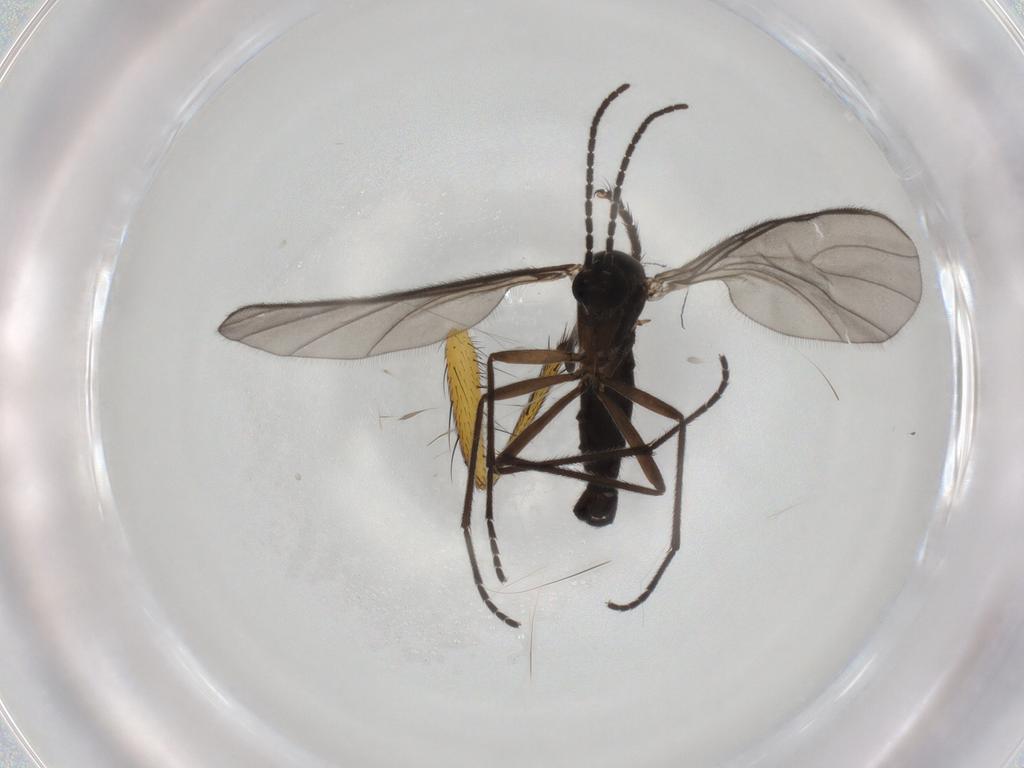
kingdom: Animalia
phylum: Arthropoda
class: Insecta
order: Diptera
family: Sciaridae
